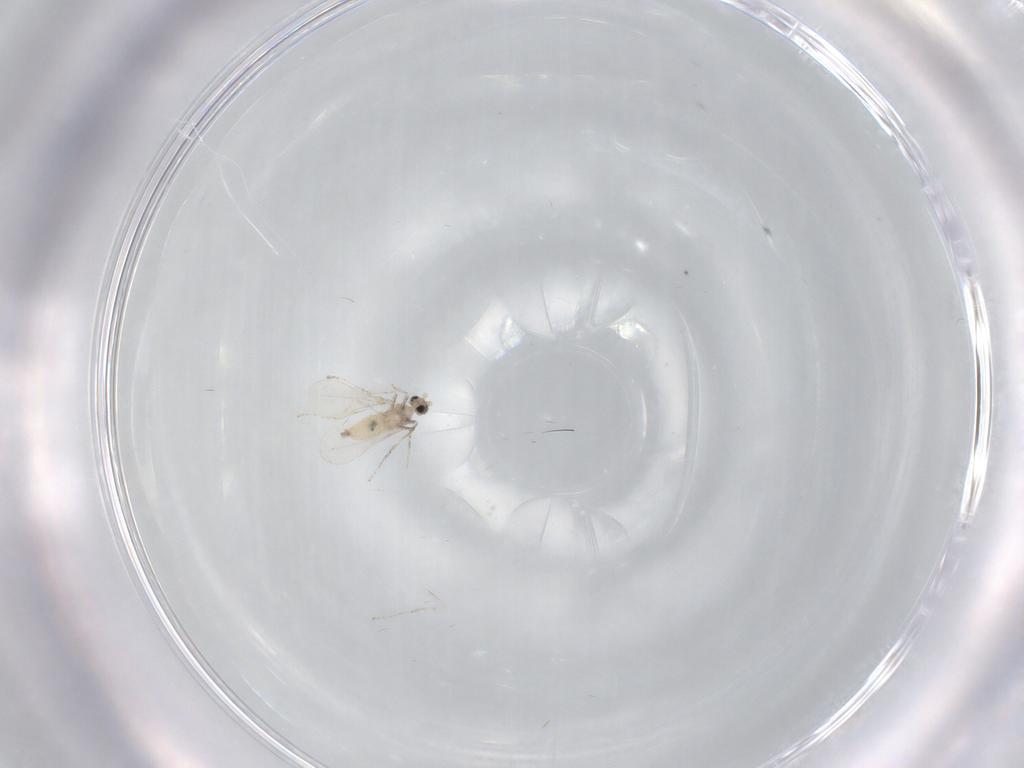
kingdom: Animalia
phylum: Arthropoda
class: Insecta
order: Diptera
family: Cecidomyiidae
